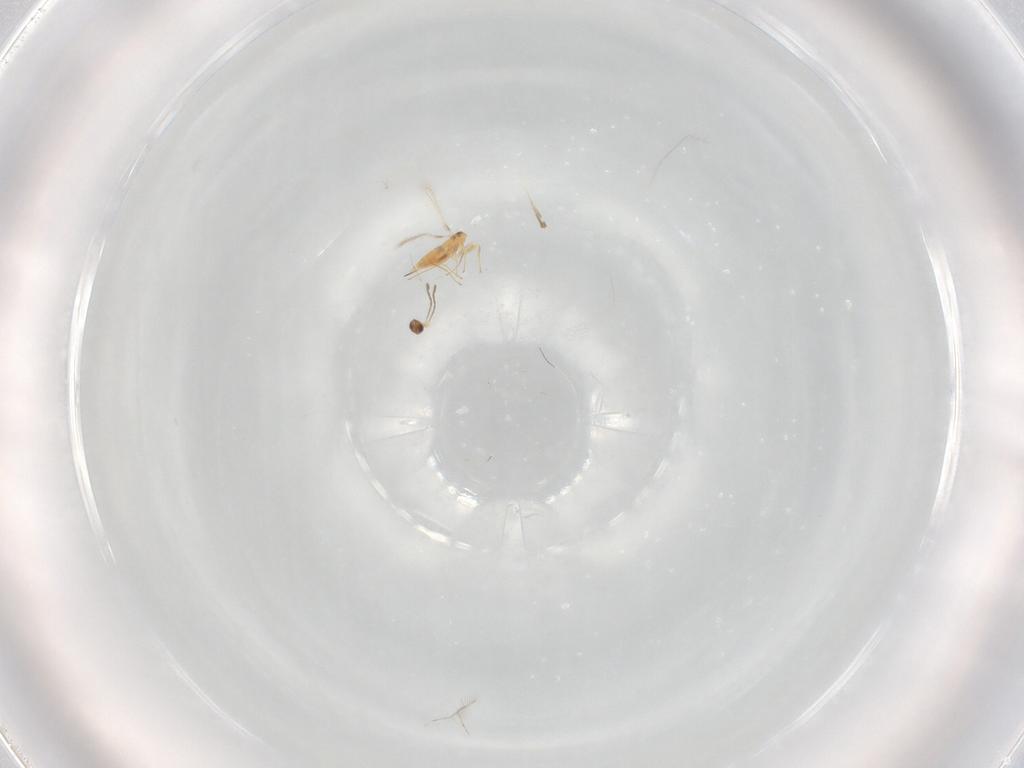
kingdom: Animalia
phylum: Arthropoda
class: Insecta
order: Hymenoptera
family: Mymaridae
